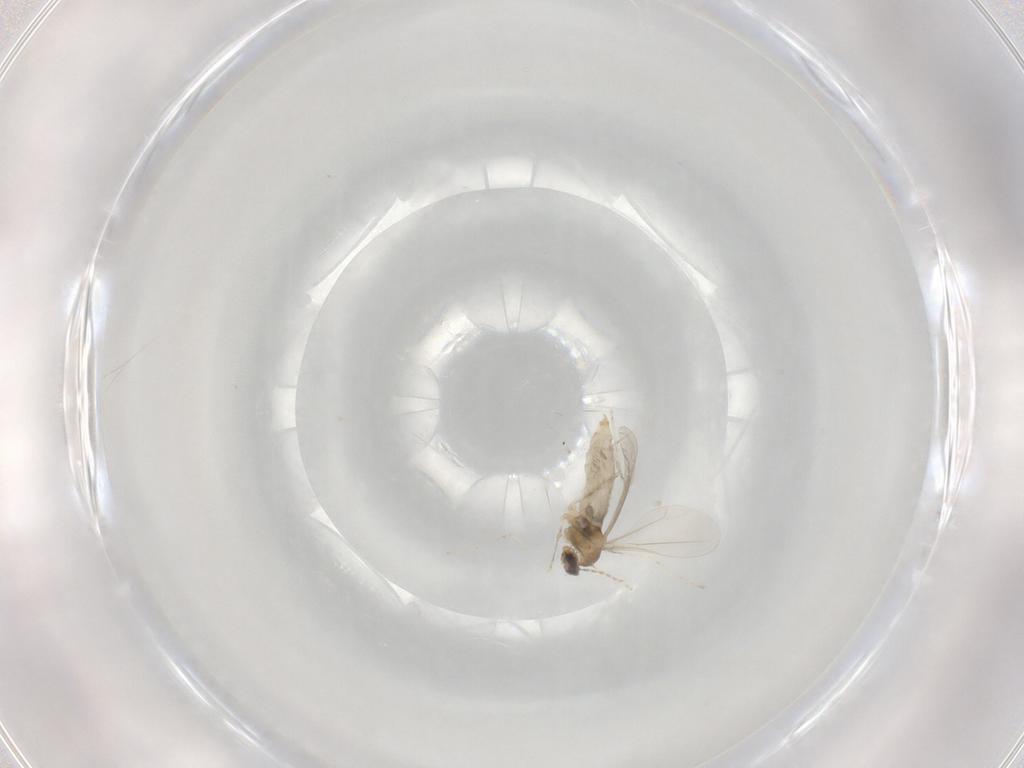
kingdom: Animalia
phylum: Arthropoda
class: Insecta
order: Diptera
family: Cecidomyiidae
